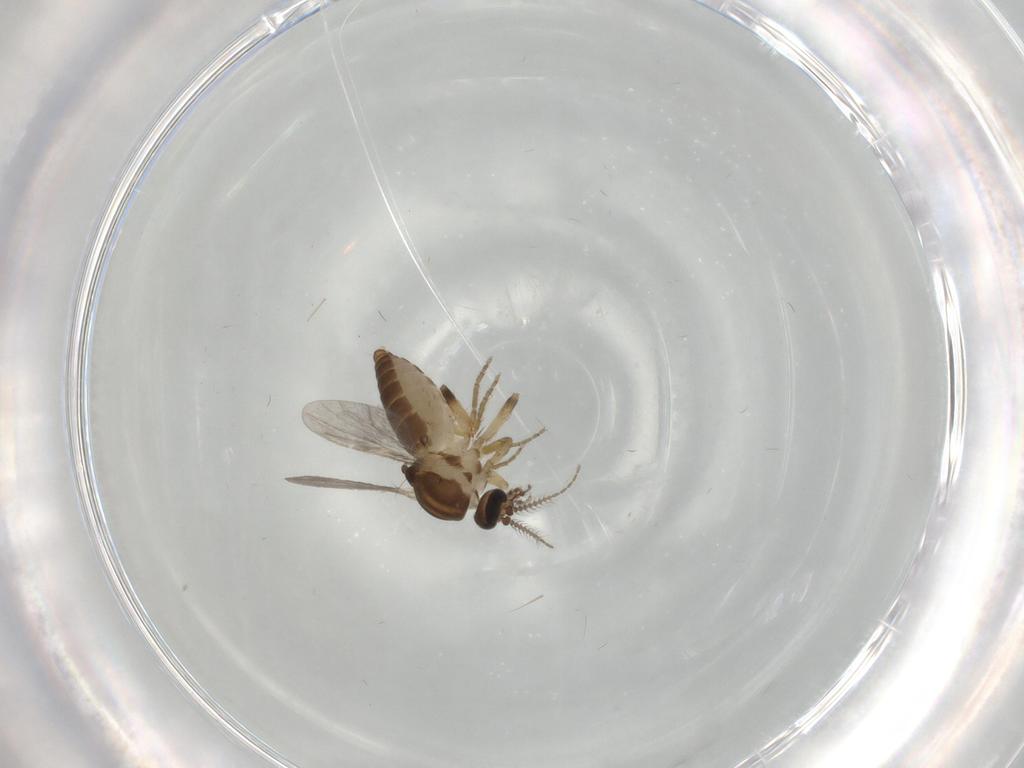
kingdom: Animalia
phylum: Arthropoda
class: Insecta
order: Diptera
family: Ceratopogonidae
